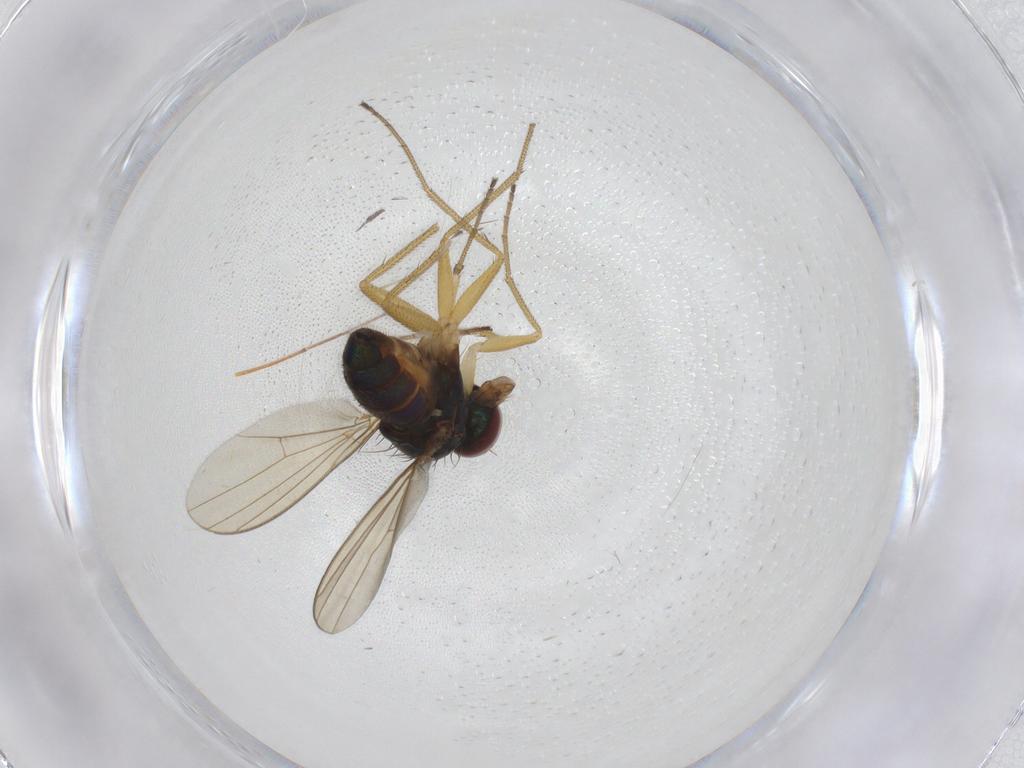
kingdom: Animalia
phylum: Arthropoda
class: Insecta
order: Diptera
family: Dolichopodidae
